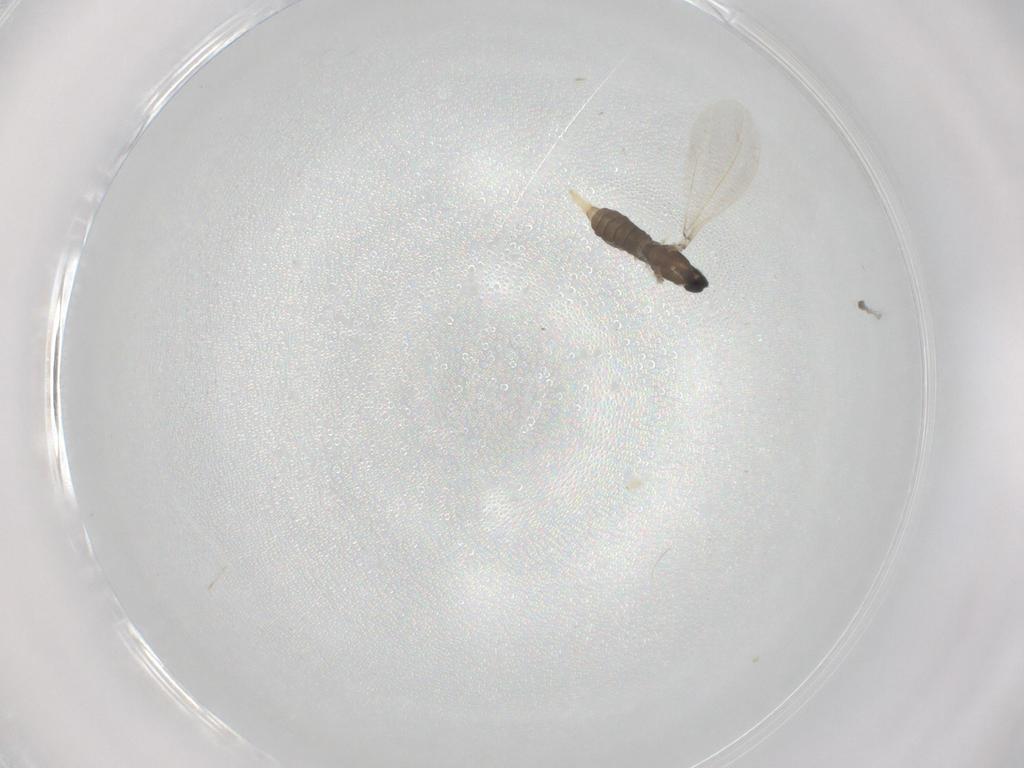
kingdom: Animalia
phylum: Arthropoda
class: Insecta
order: Diptera
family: Cecidomyiidae
